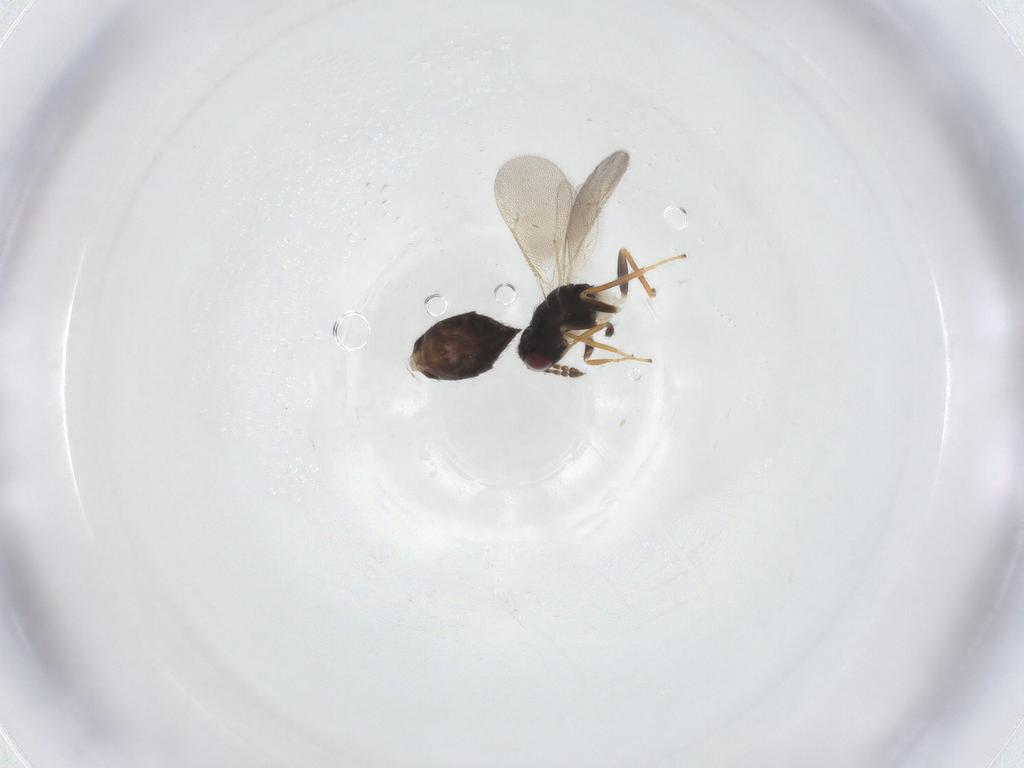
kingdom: Animalia
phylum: Arthropoda
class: Insecta
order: Hymenoptera
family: Eulophidae
